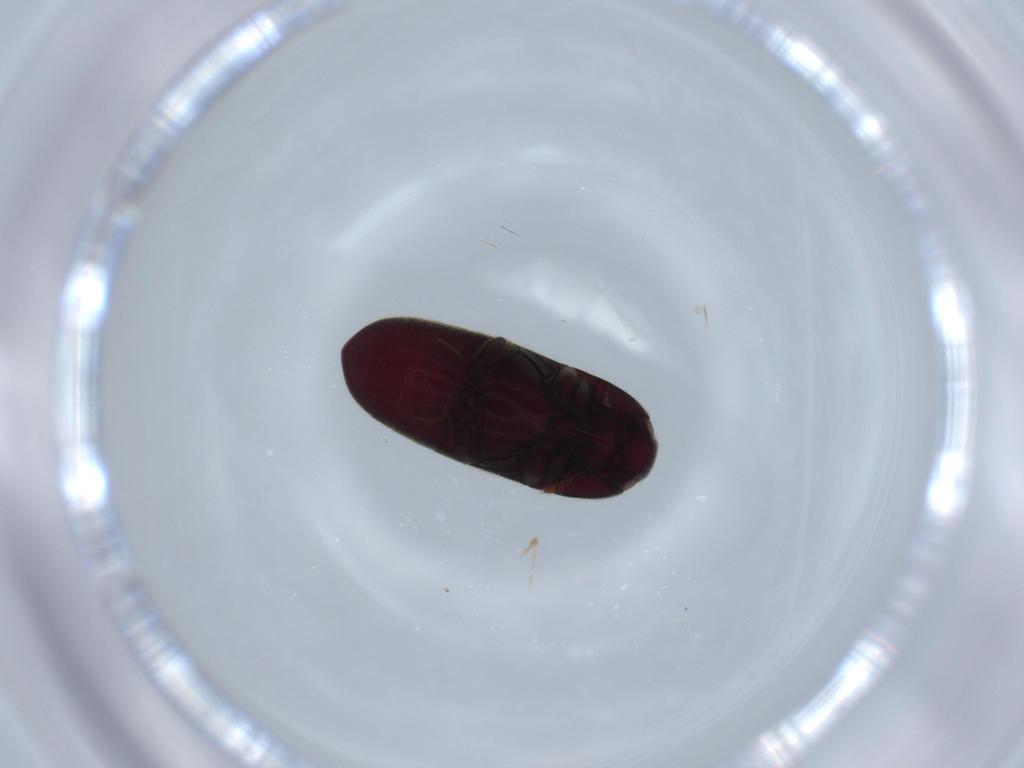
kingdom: Animalia
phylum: Arthropoda
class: Insecta
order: Coleoptera
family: Throscidae
